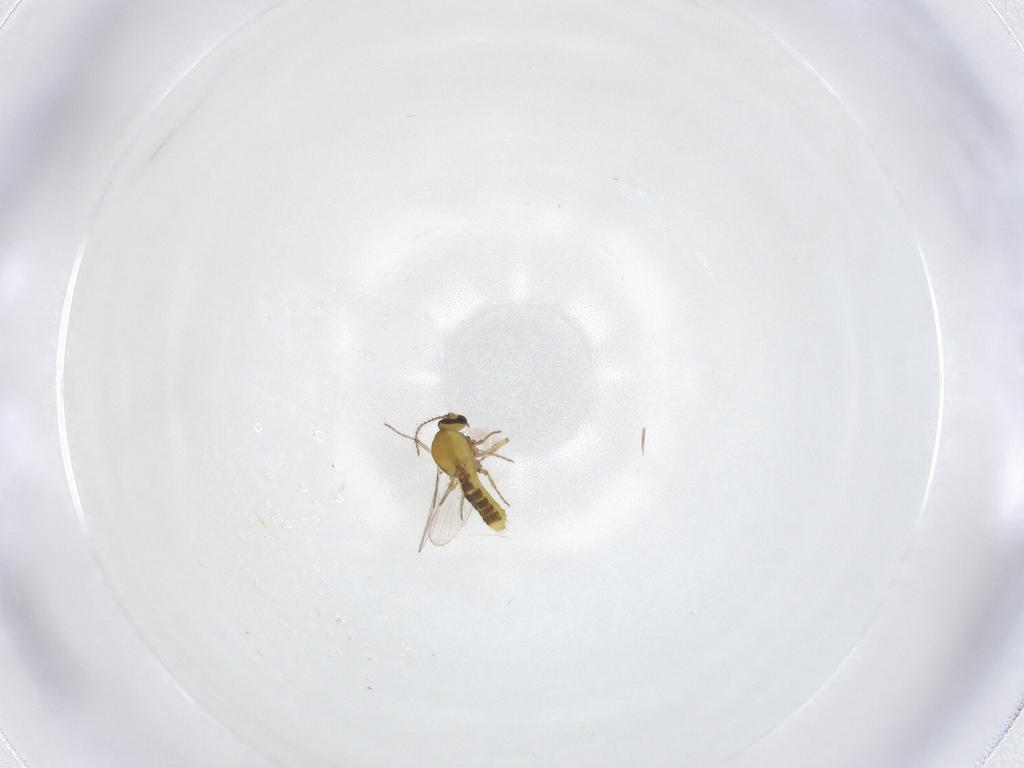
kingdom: Animalia
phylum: Arthropoda
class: Insecta
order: Diptera
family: Ceratopogonidae
